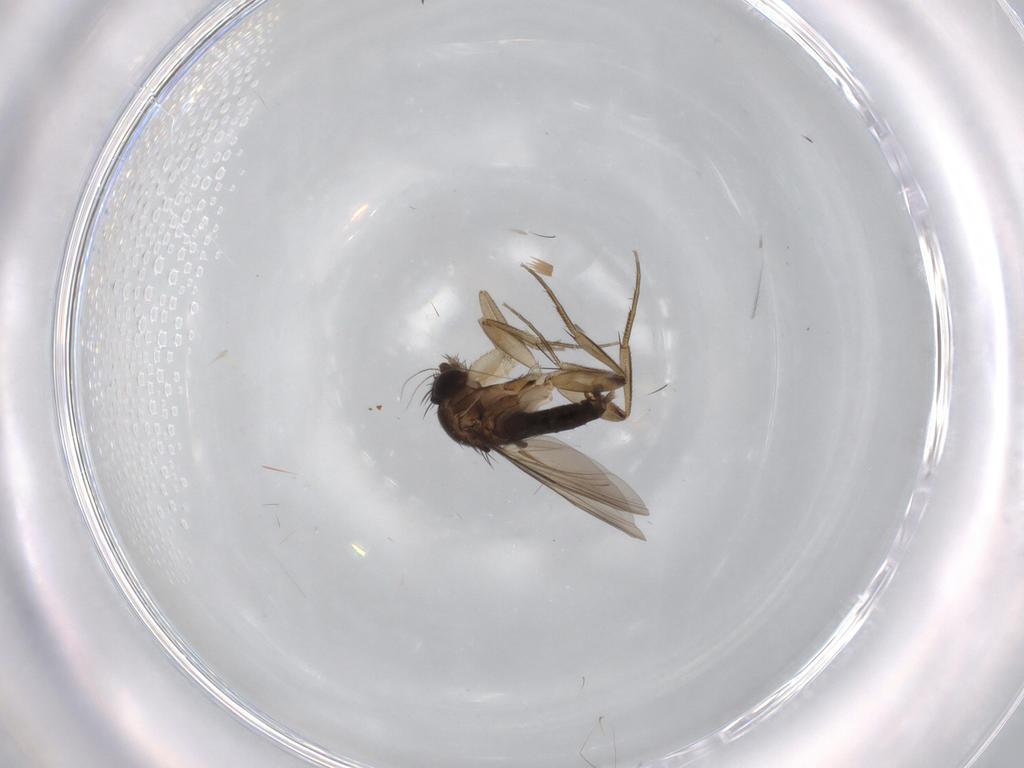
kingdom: Animalia
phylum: Arthropoda
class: Insecta
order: Diptera
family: Phoridae
